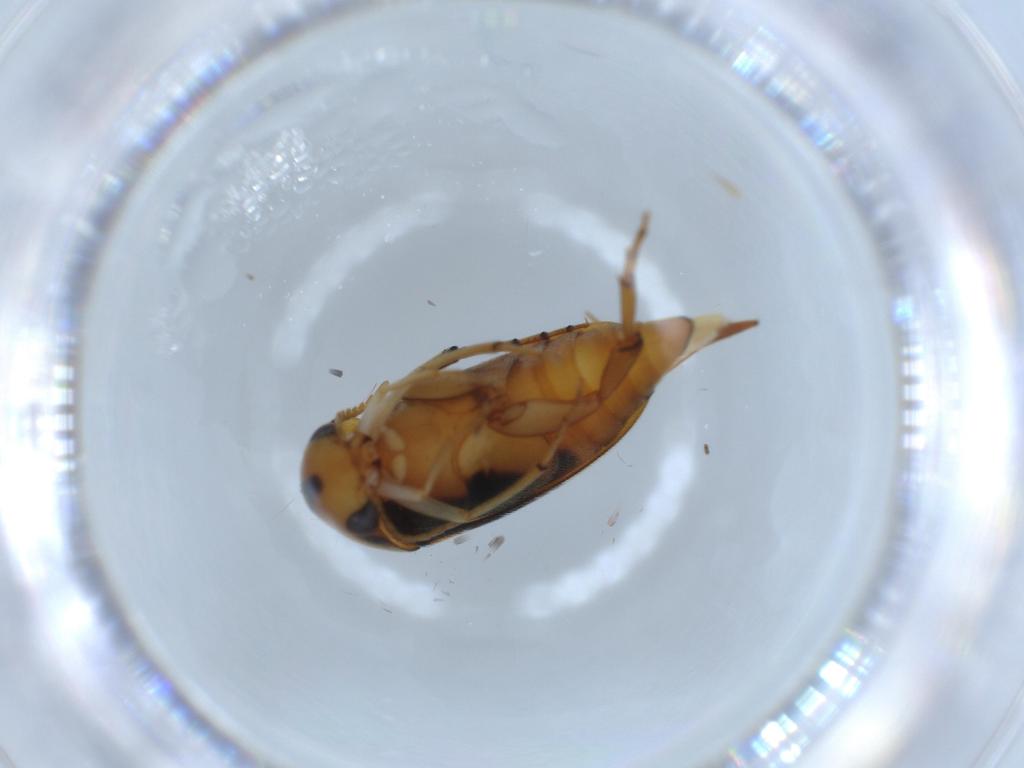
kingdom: Animalia
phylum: Arthropoda
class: Insecta
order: Coleoptera
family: Mordellidae
